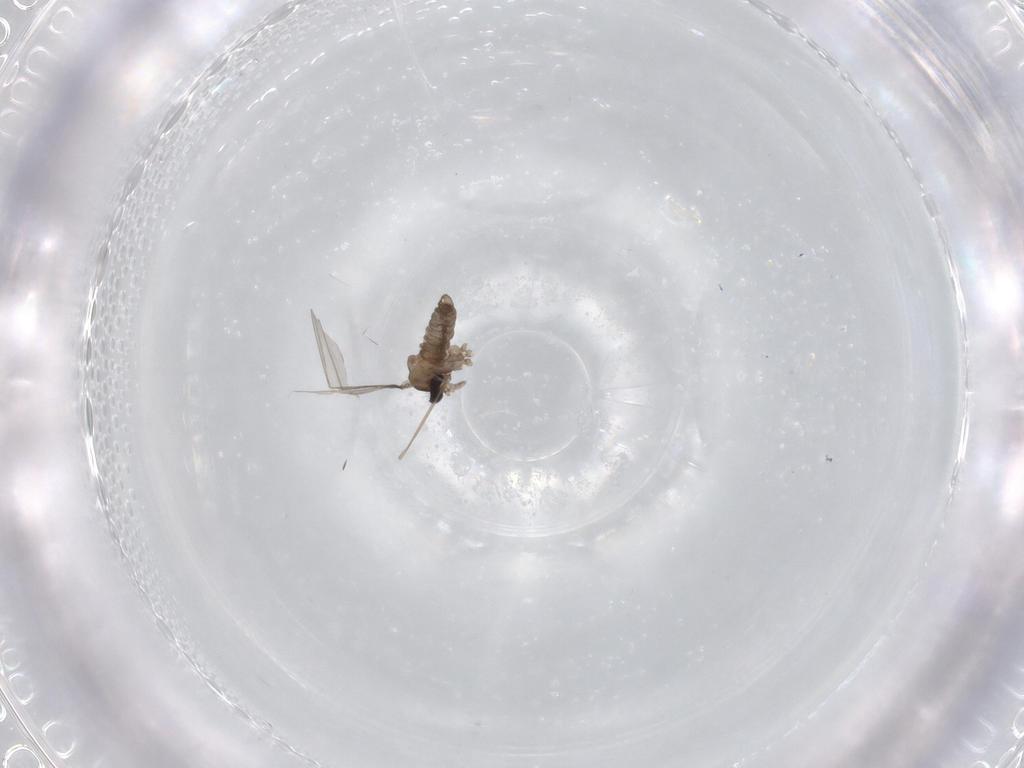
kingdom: Animalia
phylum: Arthropoda
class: Insecta
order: Diptera
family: Cecidomyiidae
